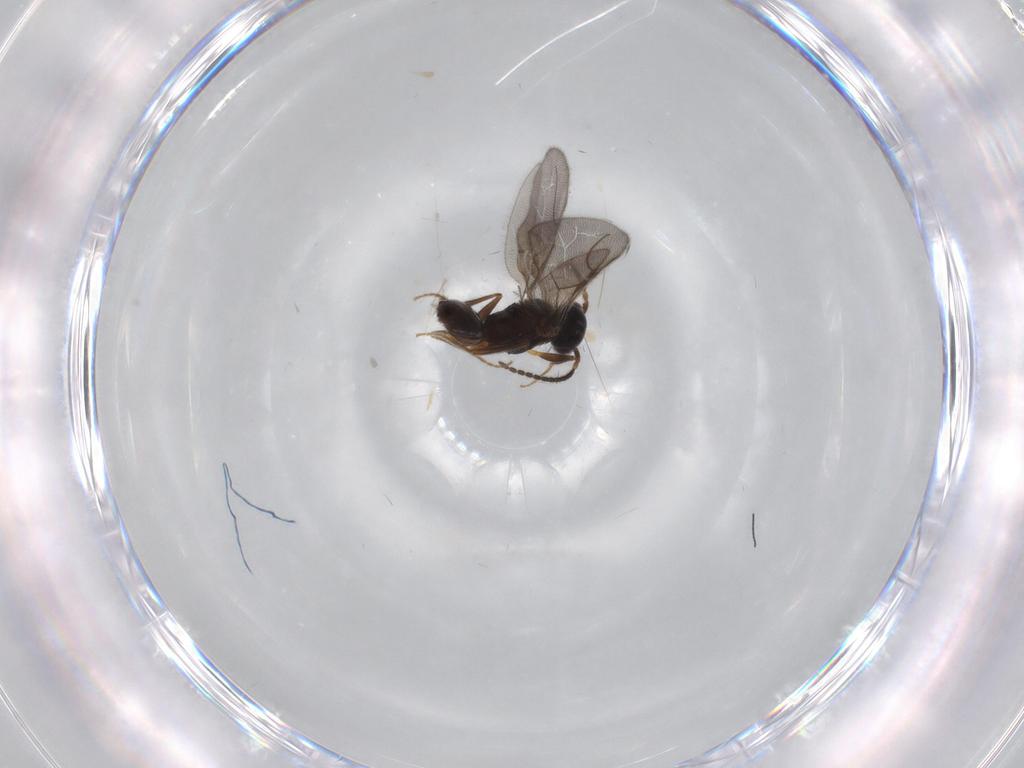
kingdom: Animalia
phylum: Arthropoda
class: Insecta
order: Hymenoptera
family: Bethylidae
